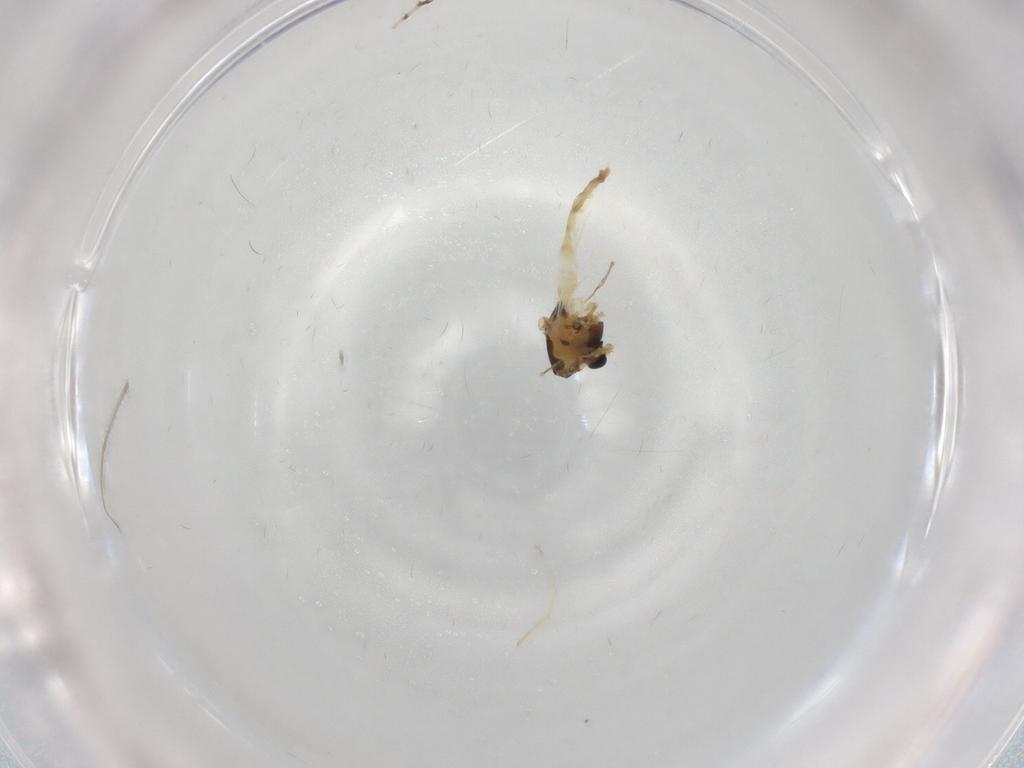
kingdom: Animalia
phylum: Arthropoda
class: Insecta
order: Diptera
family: Chironomidae
